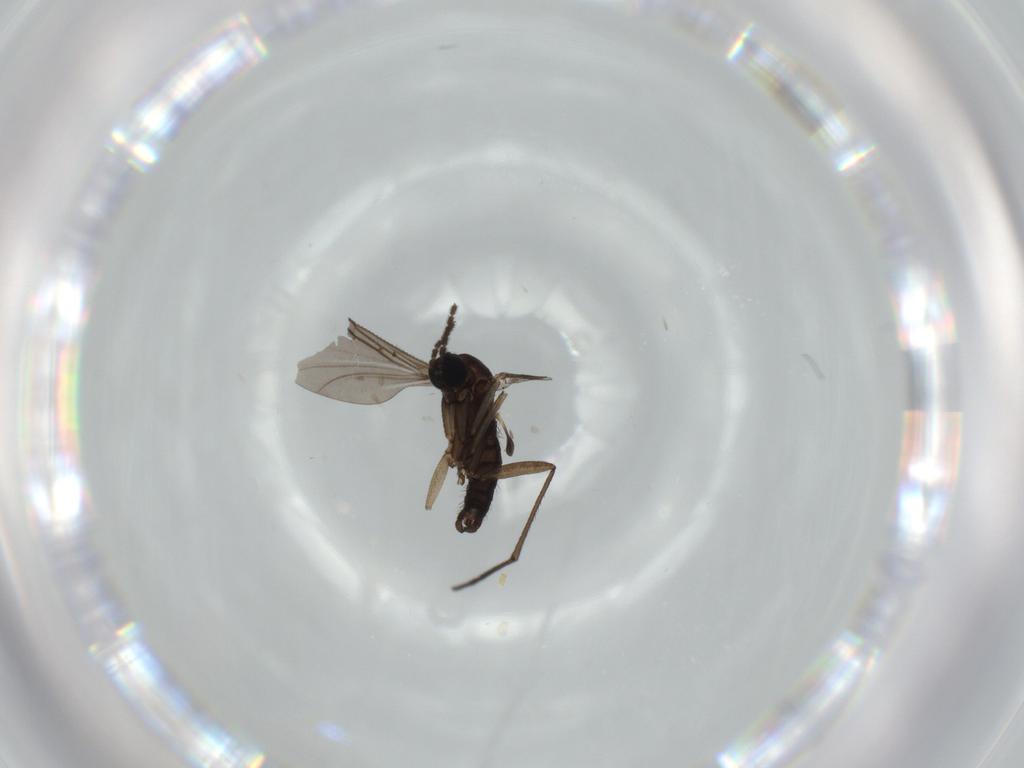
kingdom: Animalia
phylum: Arthropoda
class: Insecta
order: Diptera
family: Sciaridae
